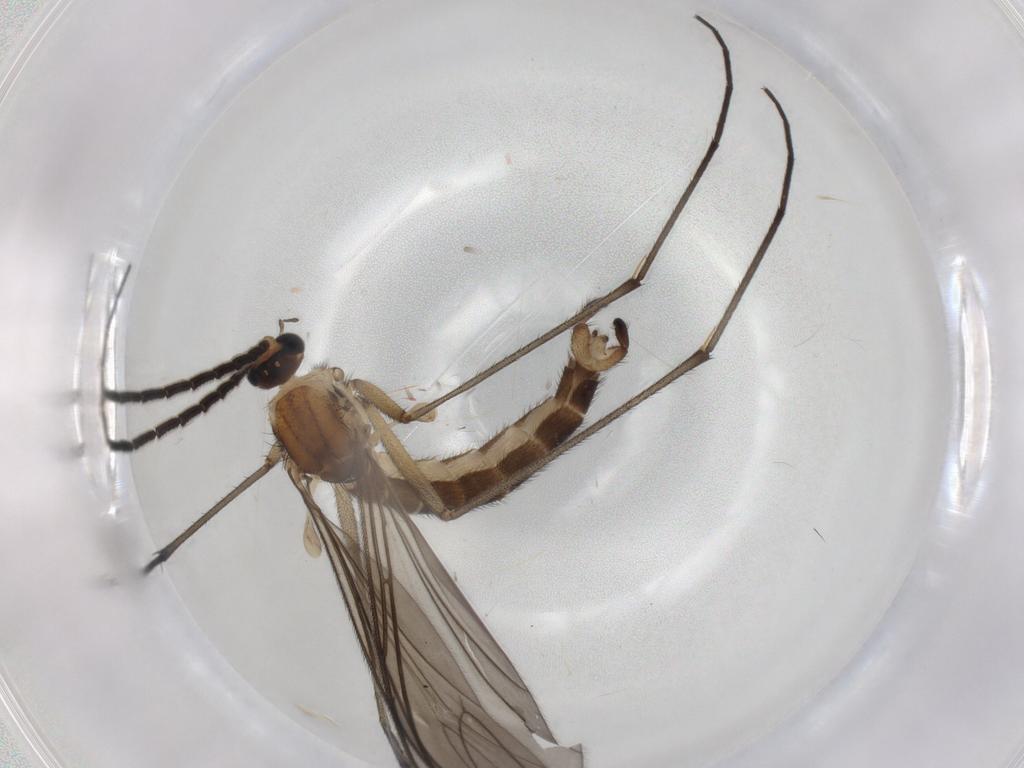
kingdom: Animalia
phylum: Arthropoda
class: Insecta
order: Diptera
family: Sciaridae
